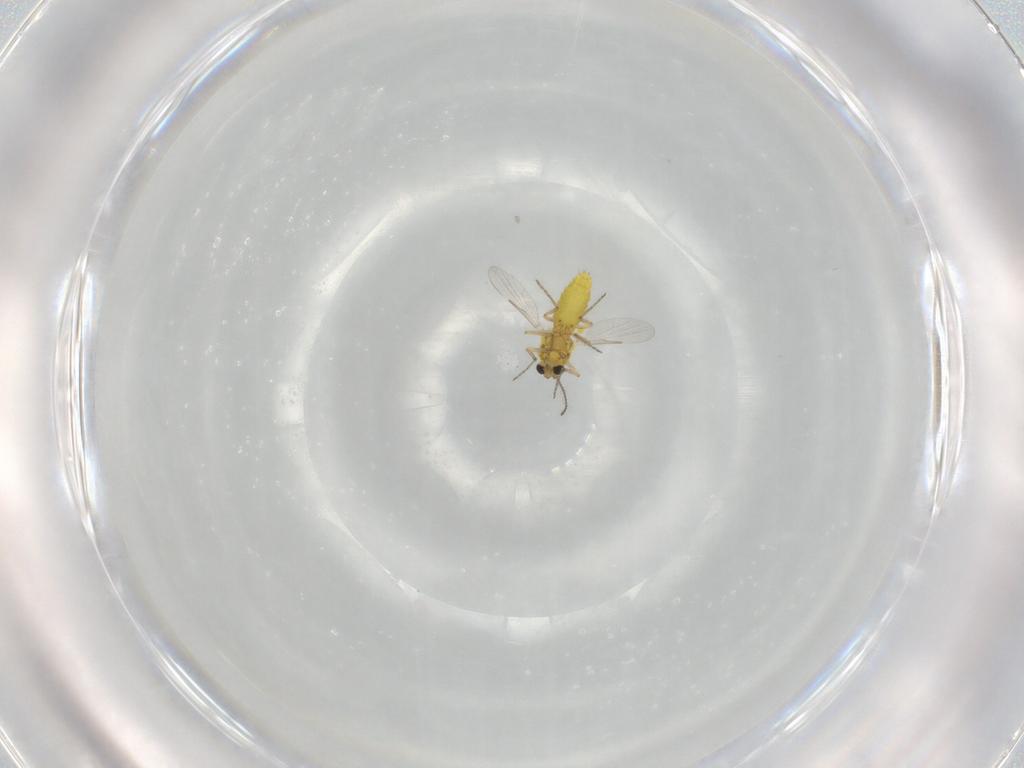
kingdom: Animalia
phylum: Arthropoda
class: Insecta
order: Diptera
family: Ceratopogonidae
